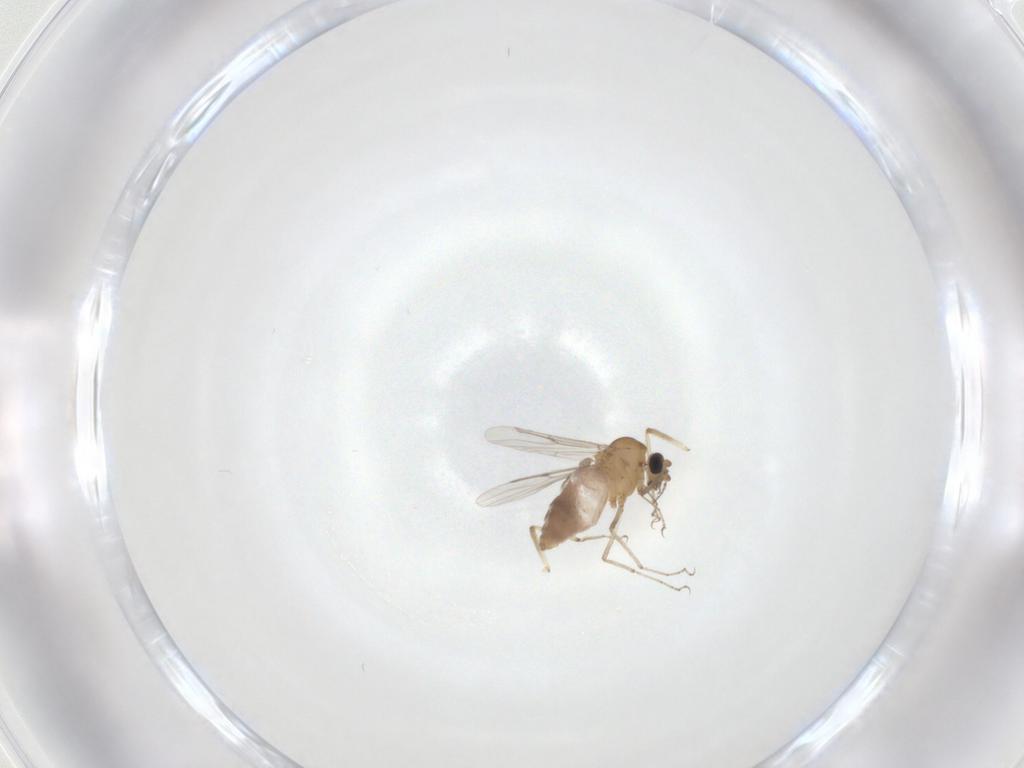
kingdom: Animalia
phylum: Arthropoda
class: Insecta
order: Diptera
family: Chironomidae
